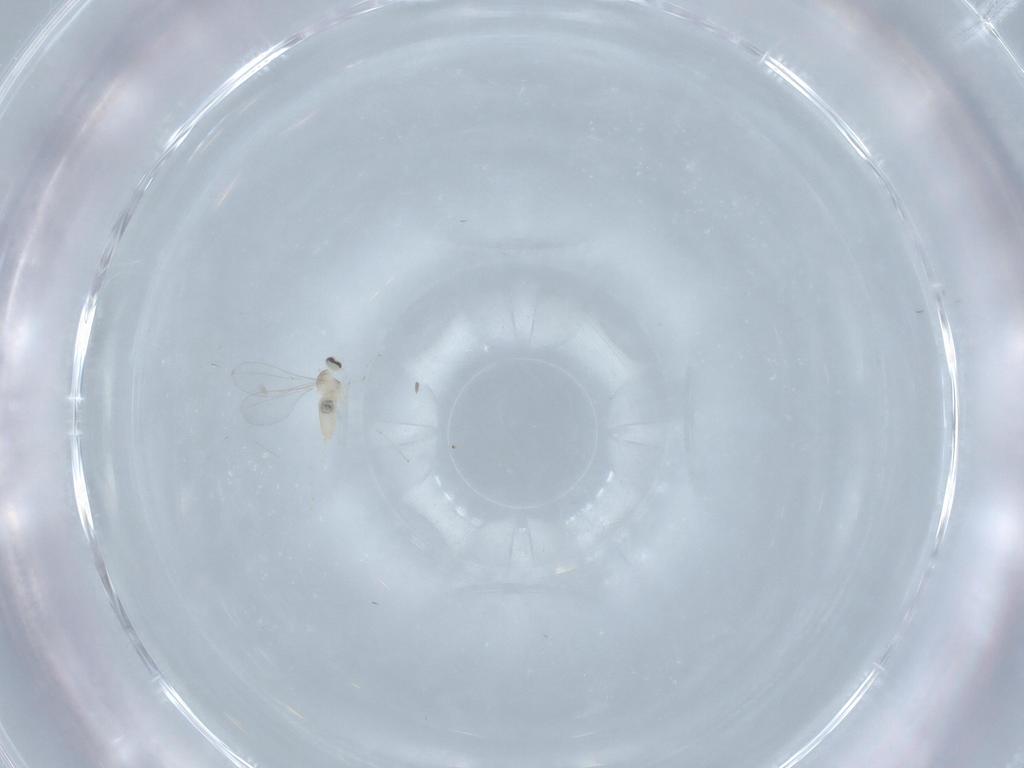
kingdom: Animalia
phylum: Arthropoda
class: Insecta
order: Diptera
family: Cecidomyiidae
